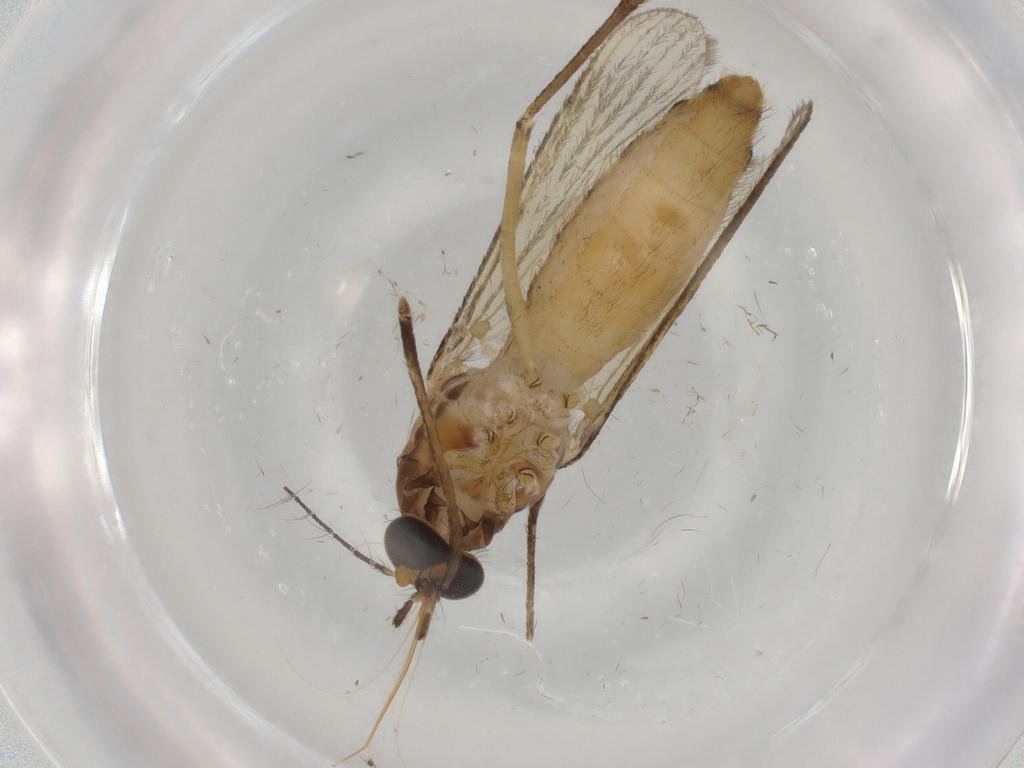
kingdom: Animalia
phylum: Arthropoda
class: Insecta
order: Diptera
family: Culicidae
